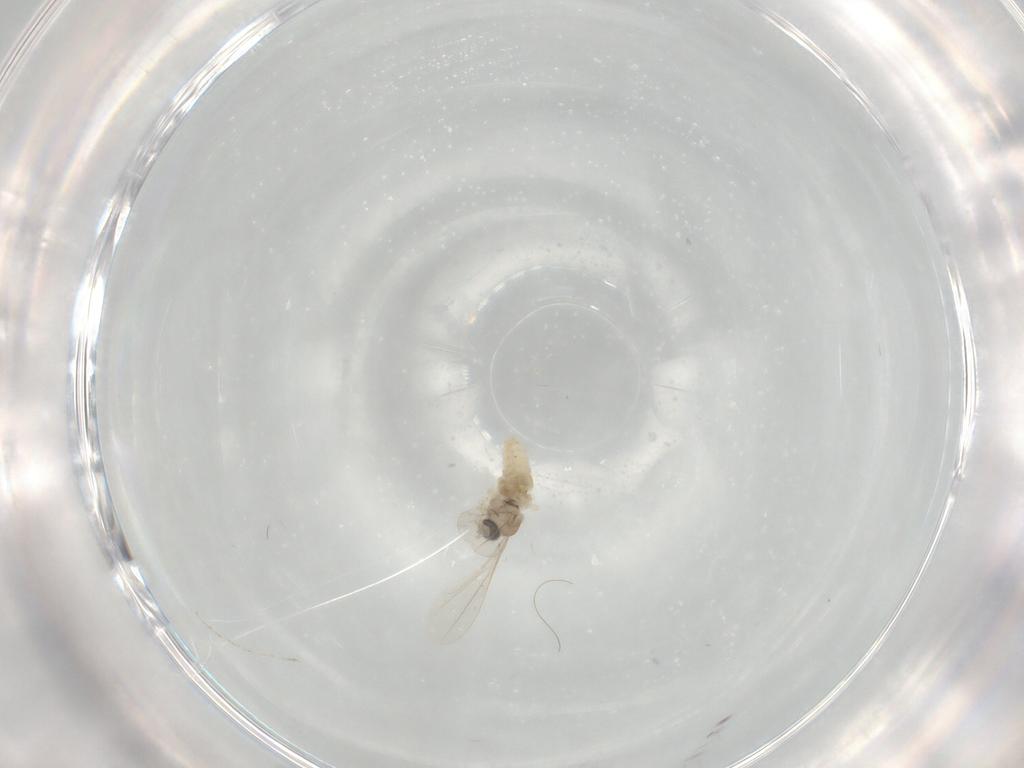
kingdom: Animalia
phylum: Arthropoda
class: Insecta
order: Diptera
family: Cecidomyiidae
